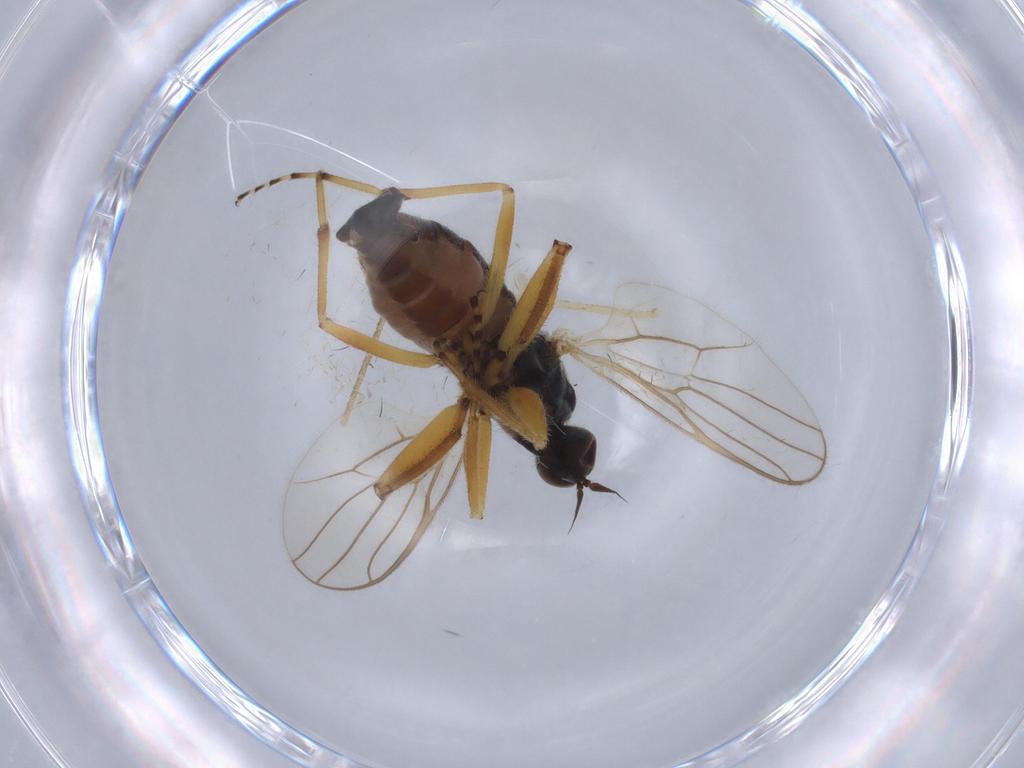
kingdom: Animalia
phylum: Arthropoda
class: Insecta
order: Diptera
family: Hybotidae
